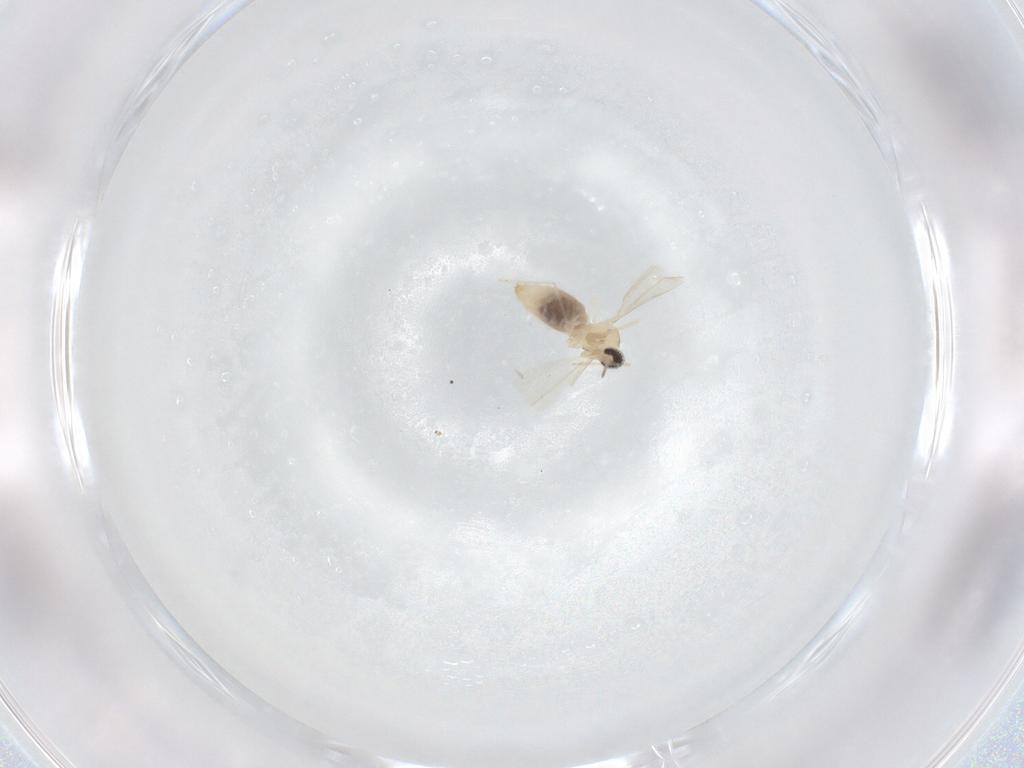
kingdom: Animalia
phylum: Arthropoda
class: Insecta
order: Diptera
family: Cecidomyiidae
